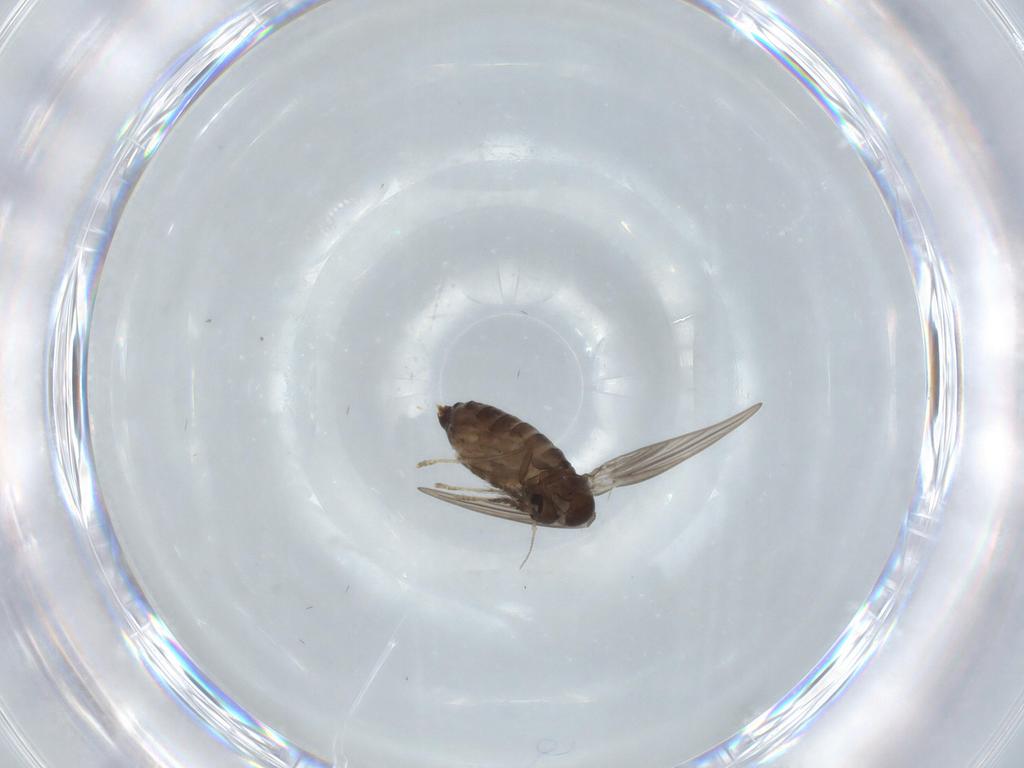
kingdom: Animalia
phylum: Arthropoda
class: Insecta
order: Diptera
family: Psychodidae
